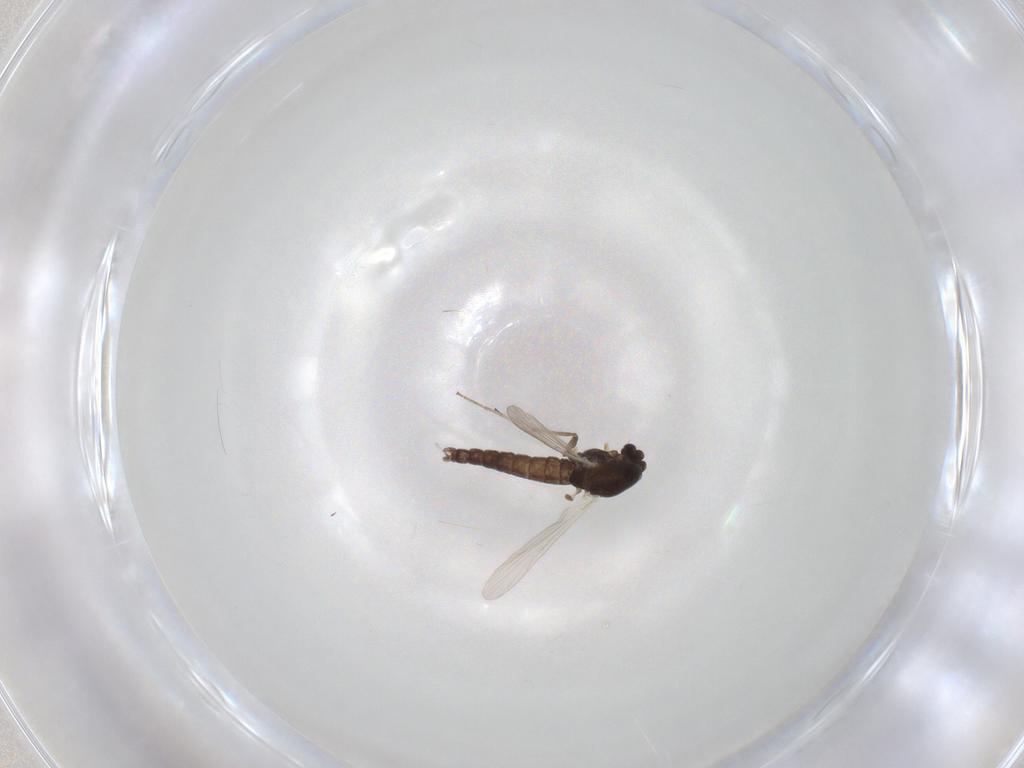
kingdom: Animalia
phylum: Arthropoda
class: Insecta
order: Diptera
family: Chironomidae
